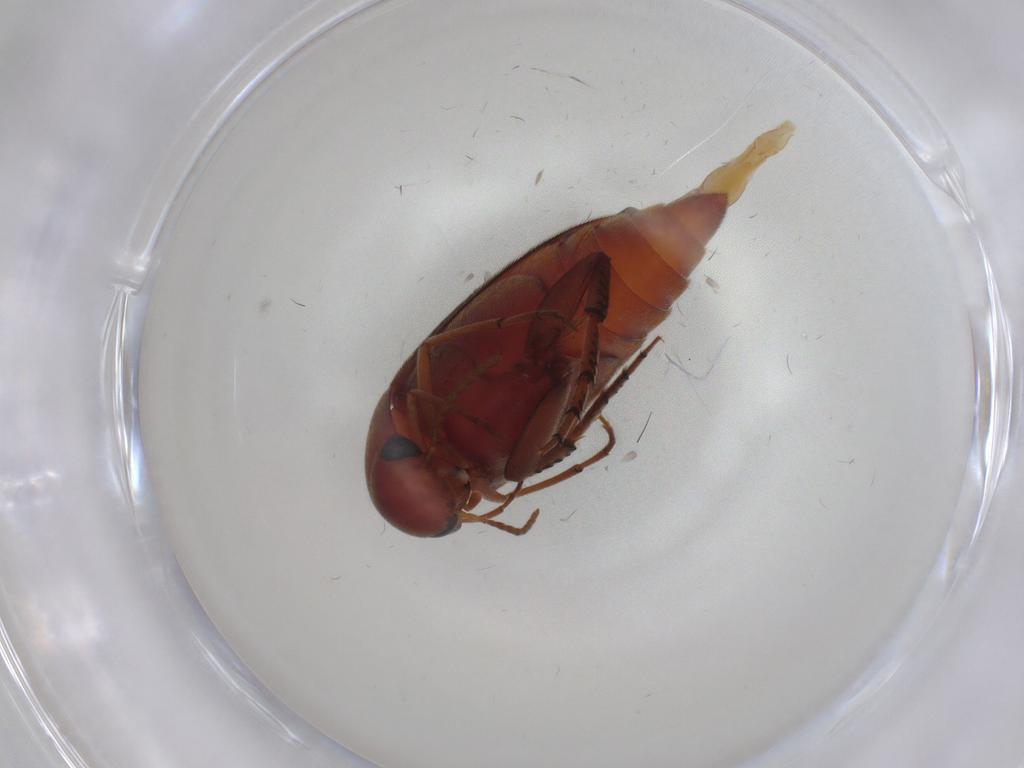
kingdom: Animalia
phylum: Arthropoda
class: Insecta
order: Coleoptera
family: Mordellidae
